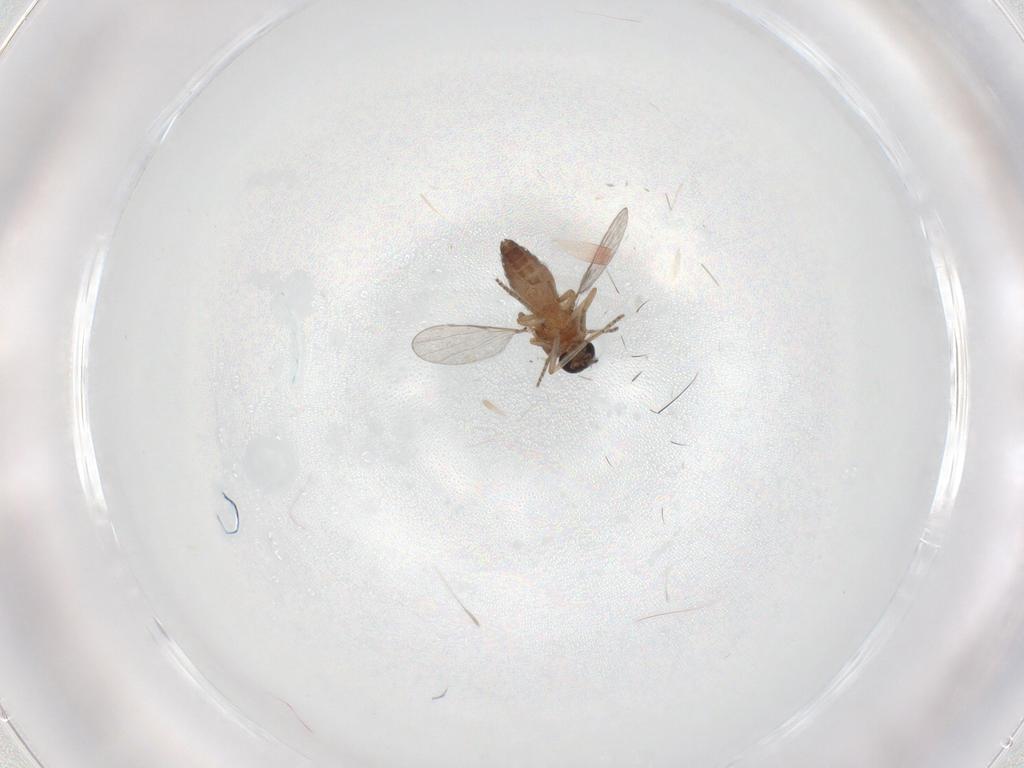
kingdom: Animalia
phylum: Arthropoda
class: Insecta
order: Diptera
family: Ceratopogonidae
